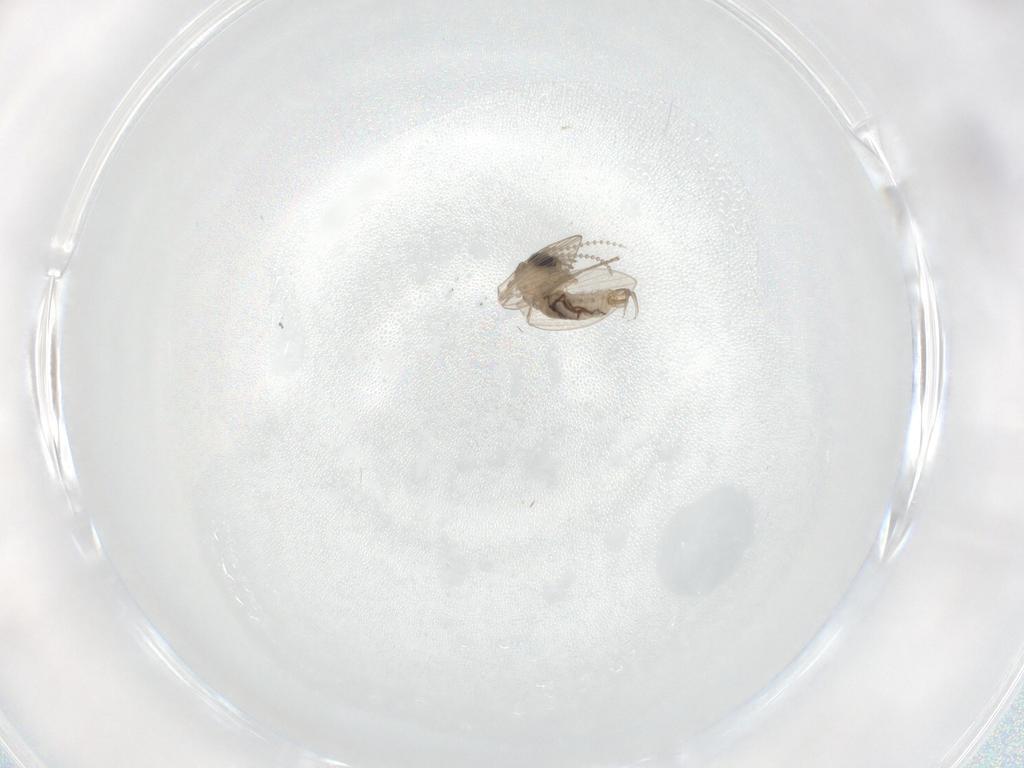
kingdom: Animalia
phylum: Arthropoda
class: Insecta
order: Diptera
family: Psychodidae
